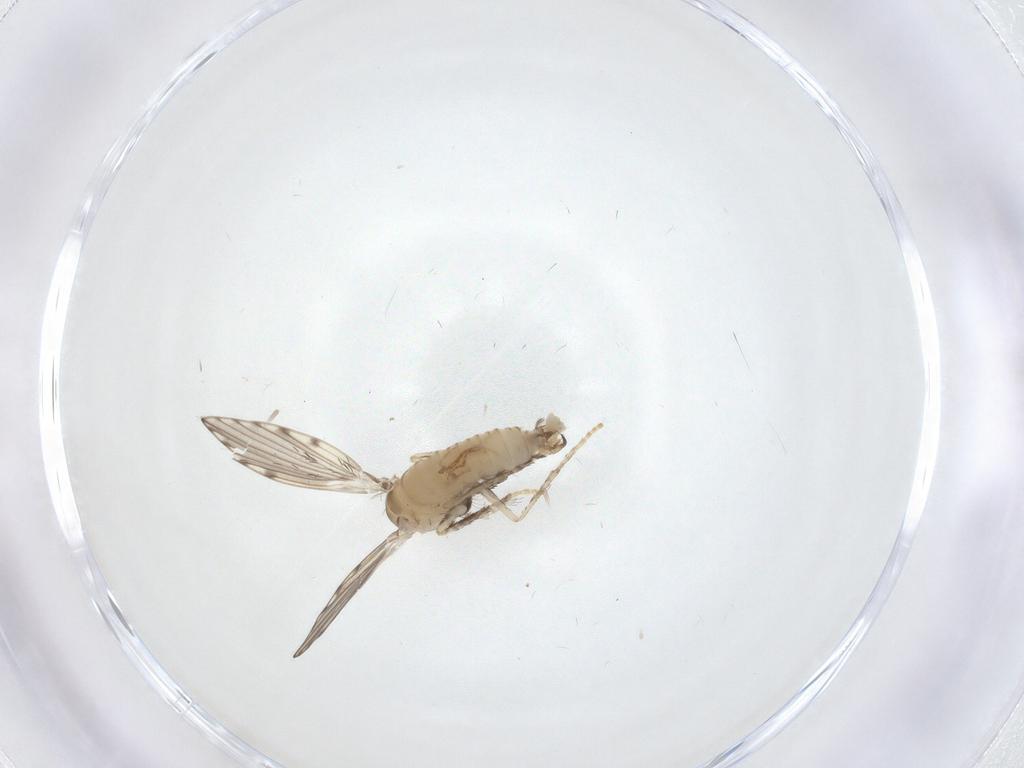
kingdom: Animalia
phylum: Arthropoda
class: Insecta
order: Diptera
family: Psychodidae
